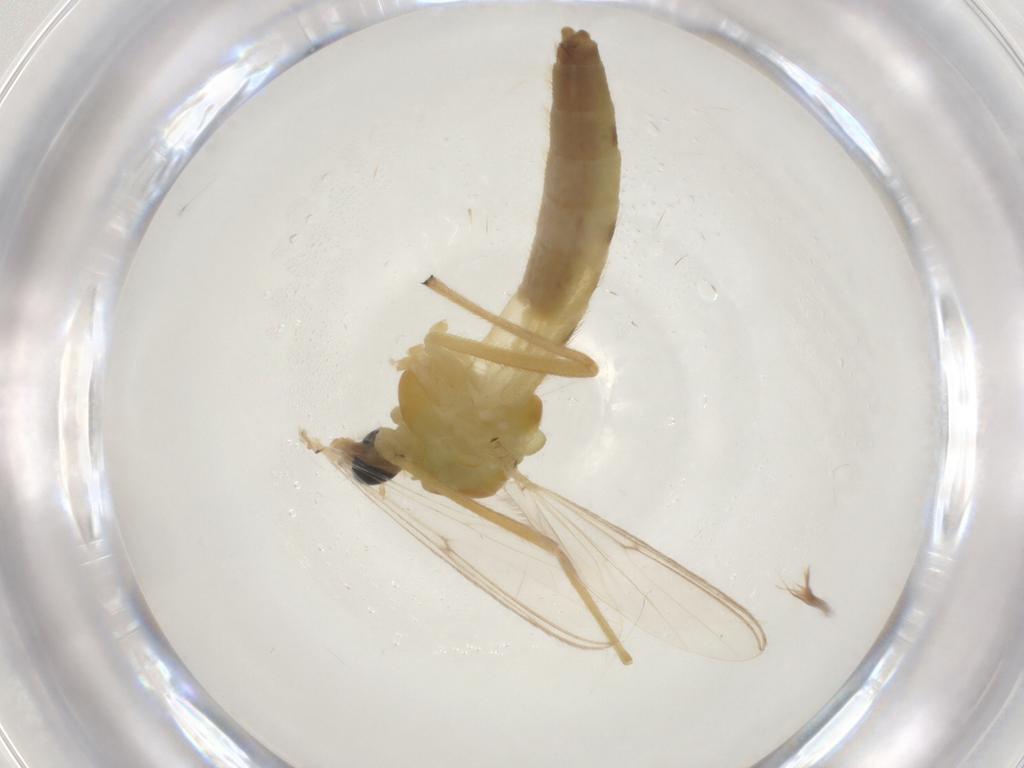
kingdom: Animalia
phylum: Arthropoda
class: Insecta
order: Diptera
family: Chironomidae
